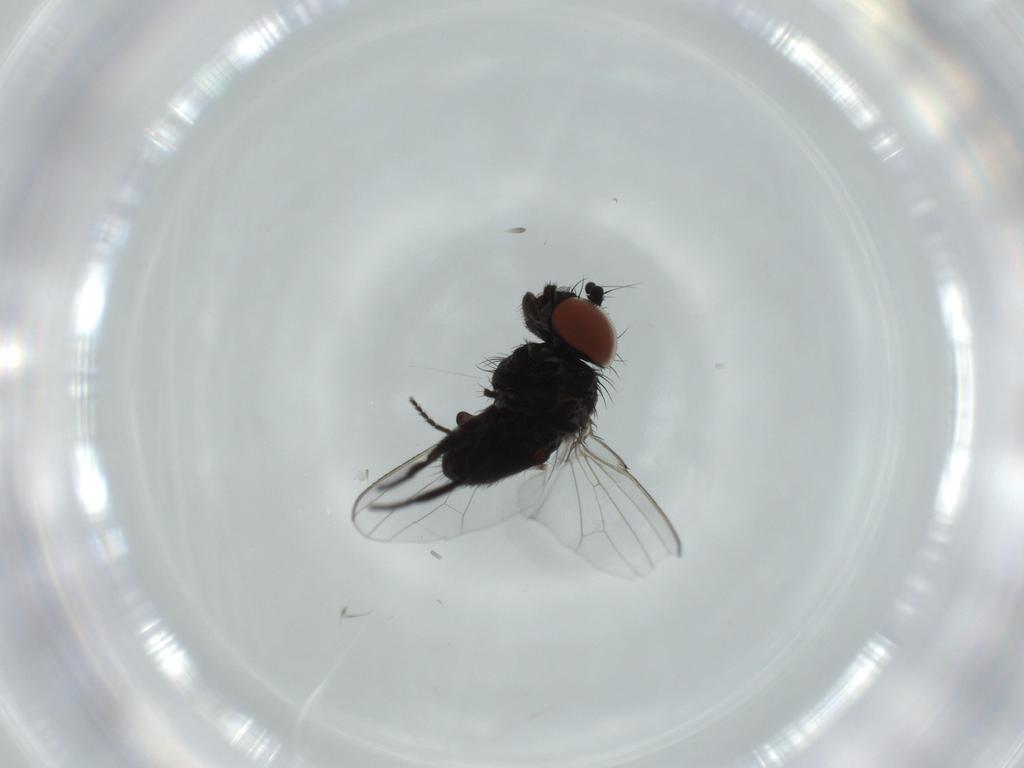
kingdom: Animalia
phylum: Arthropoda
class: Insecta
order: Diptera
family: Milichiidae
